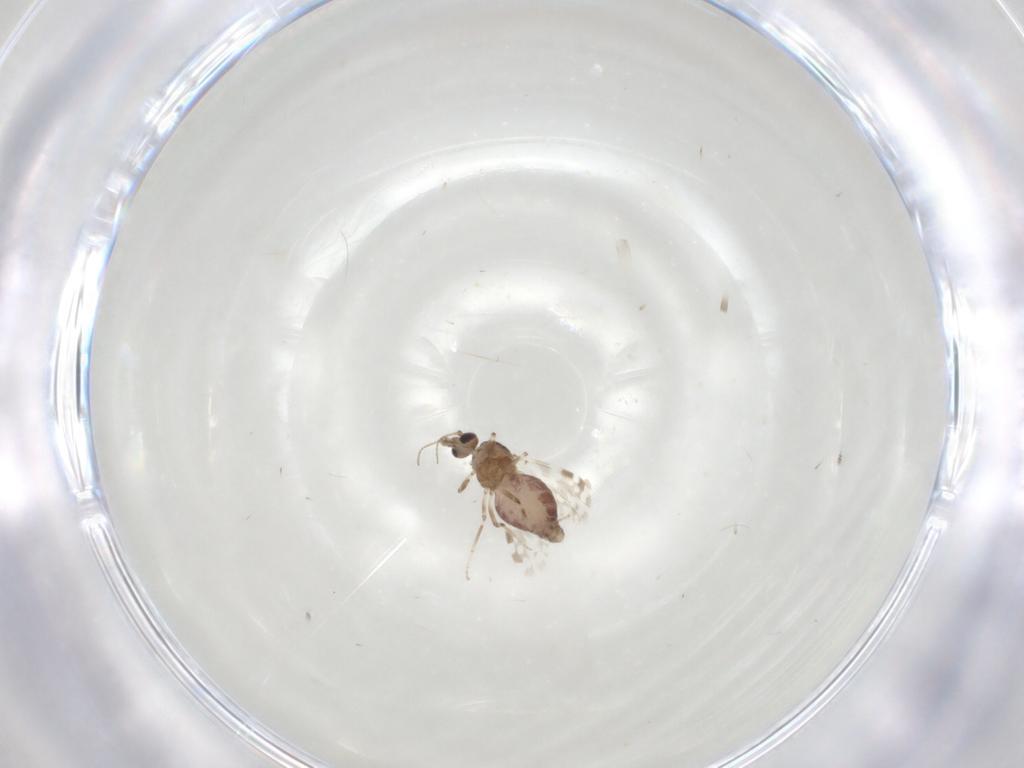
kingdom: Animalia
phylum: Arthropoda
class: Insecta
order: Diptera
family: Ceratopogonidae
